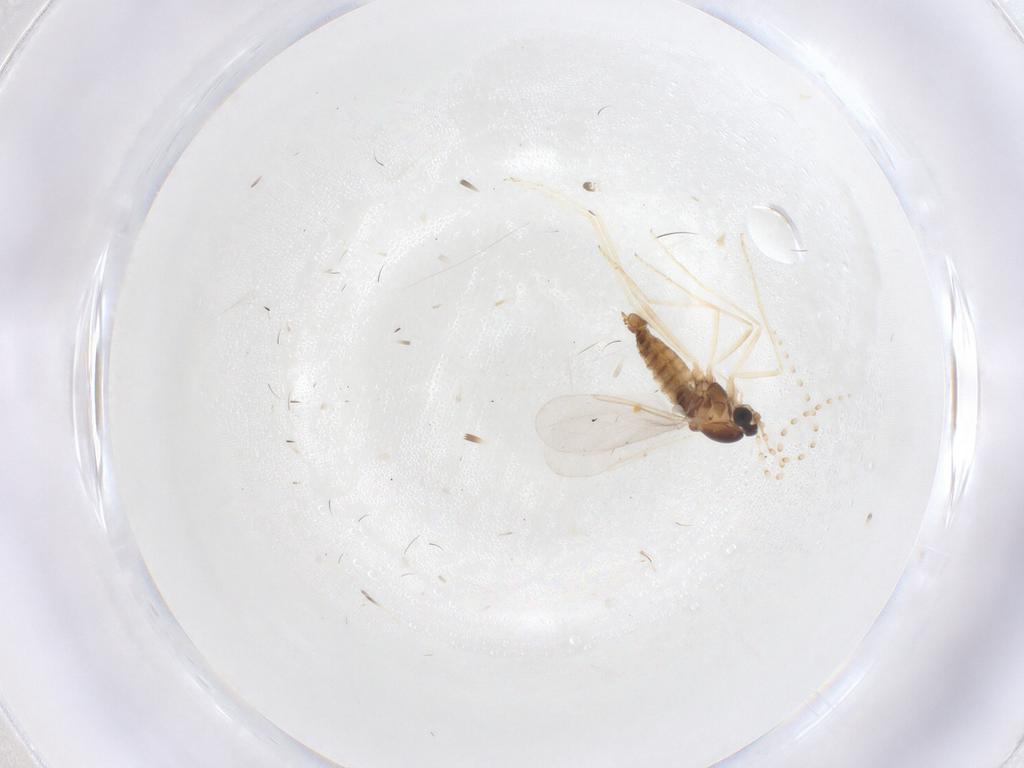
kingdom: Animalia
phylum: Arthropoda
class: Insecta
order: Diptera
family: Cecidomyiidae
